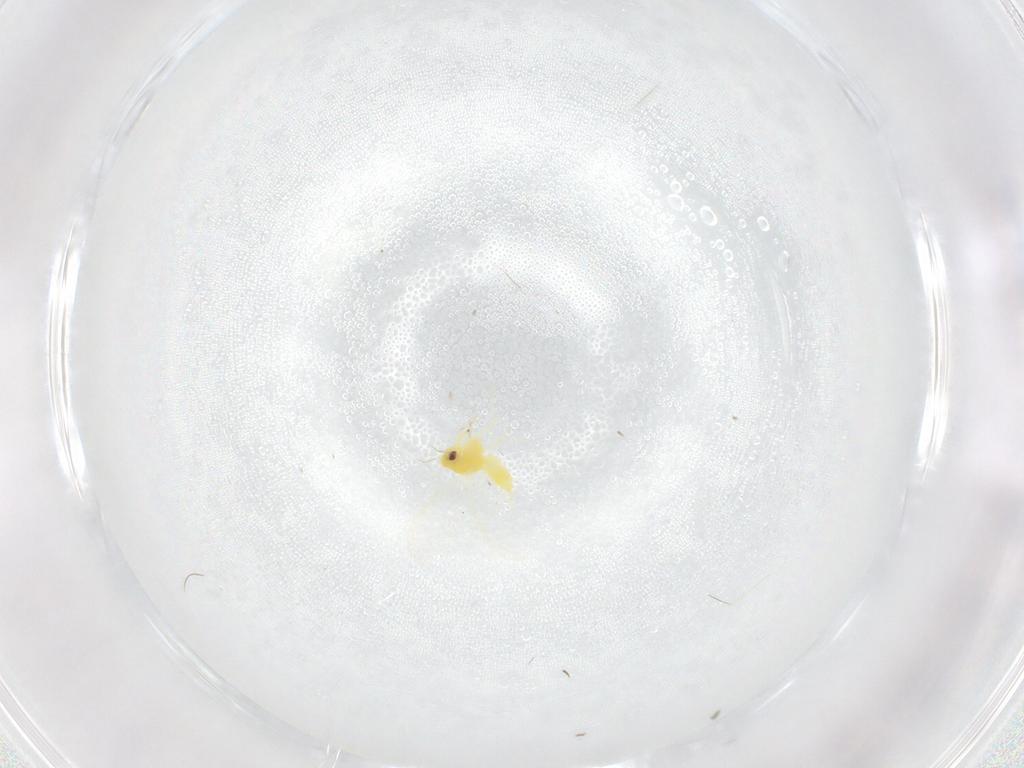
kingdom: Animalia
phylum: Arthropoda
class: Insecta
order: Hemiptera
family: Aleyrodidae
